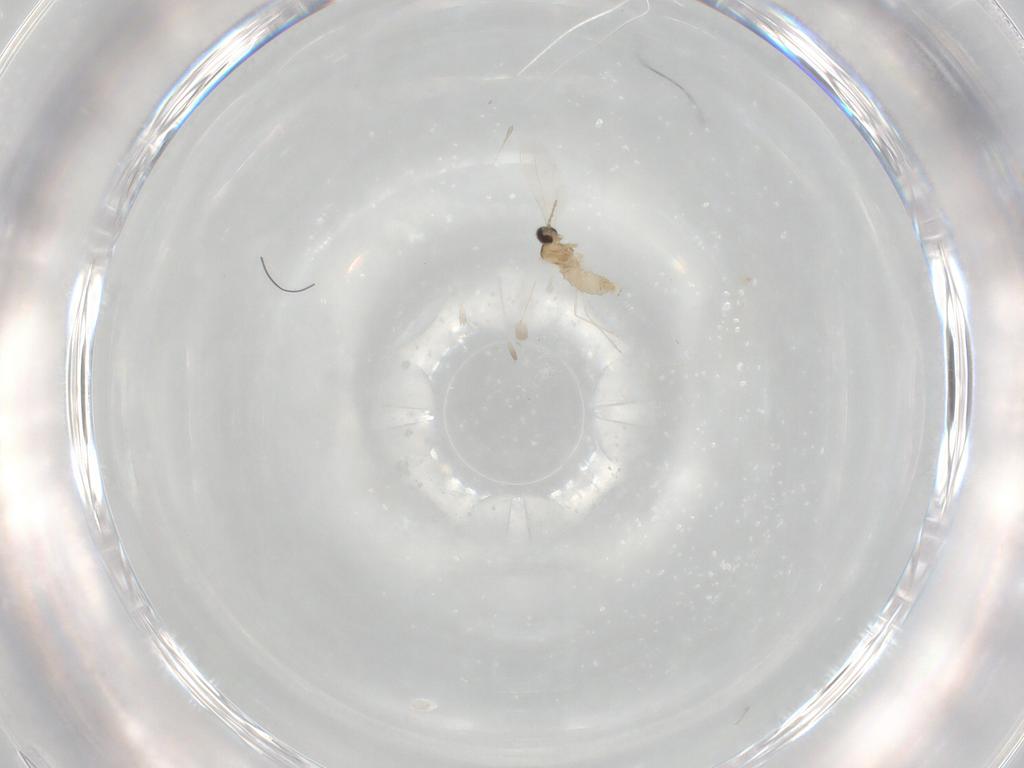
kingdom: Animalia
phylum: Arthropoda
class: Insecta
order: Diptera
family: Cecidomyiidae
